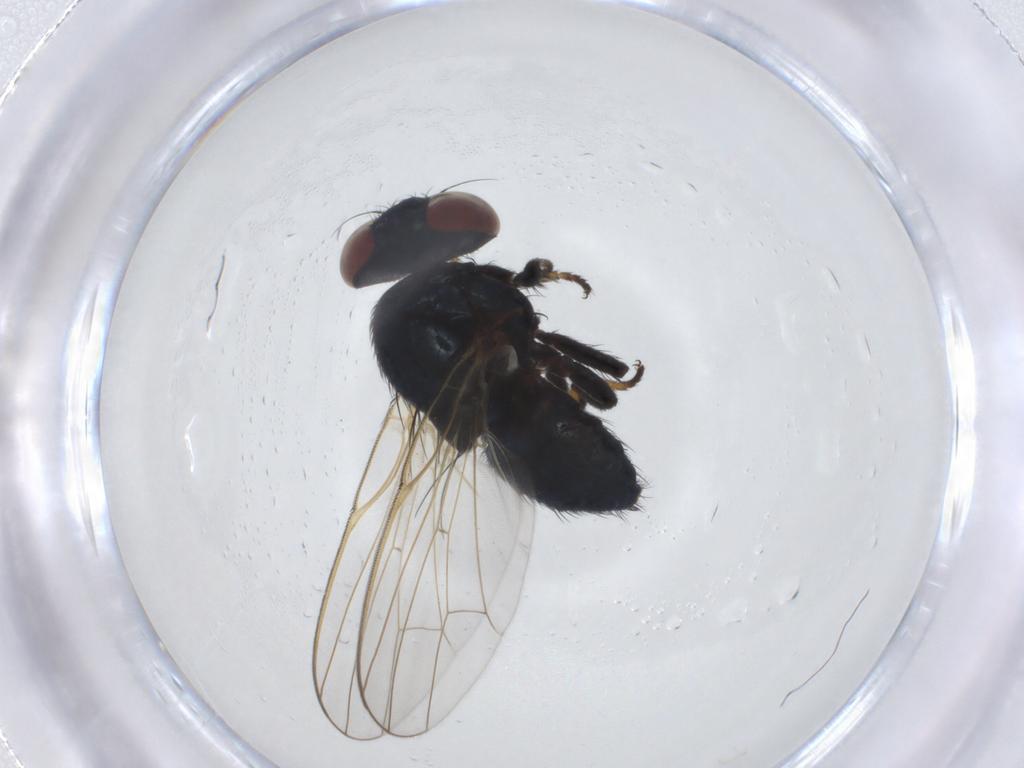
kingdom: Animalia
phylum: Arthropoda
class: Insecta
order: Diptera
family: Lonchaeidae
